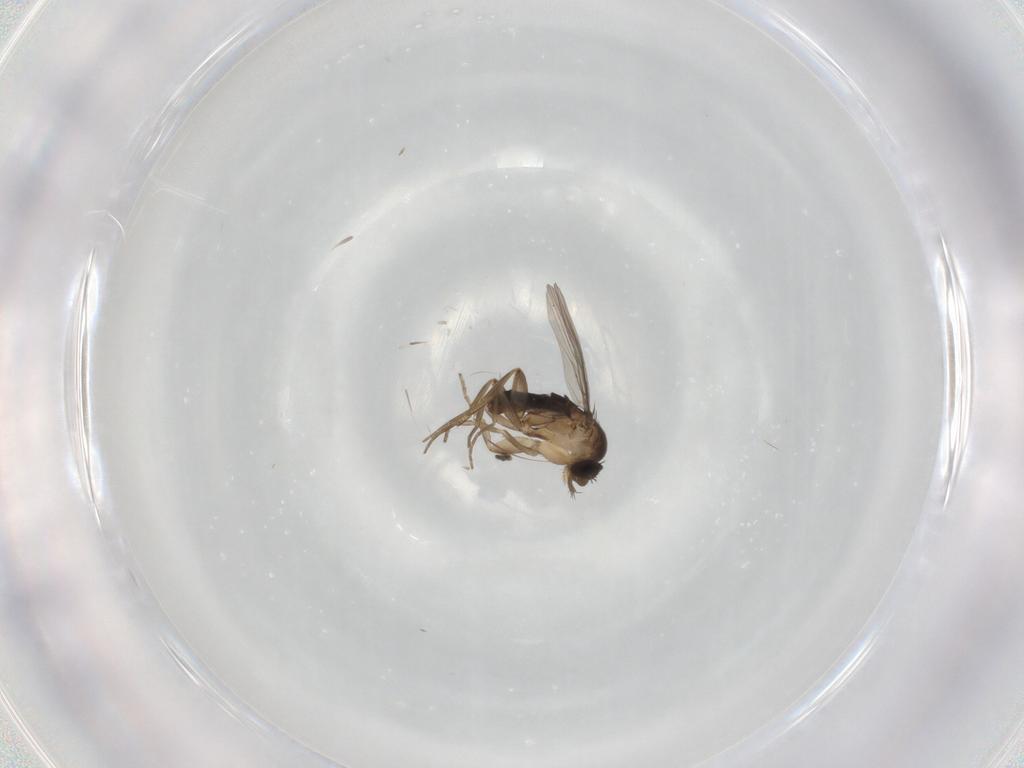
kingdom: Animalia
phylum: Arthropoda
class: Insecta
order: Diptera
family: Phoridae
